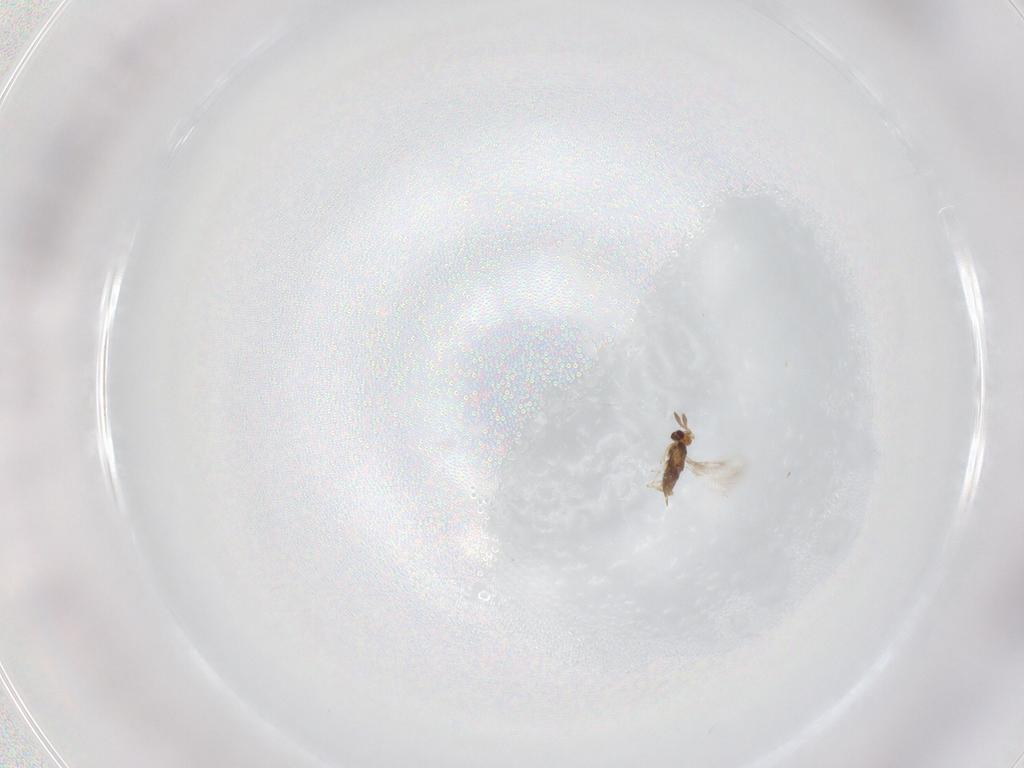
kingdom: Animalia
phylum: Arthropoda
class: Insecta
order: Hymenoptera
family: Scelionidae
